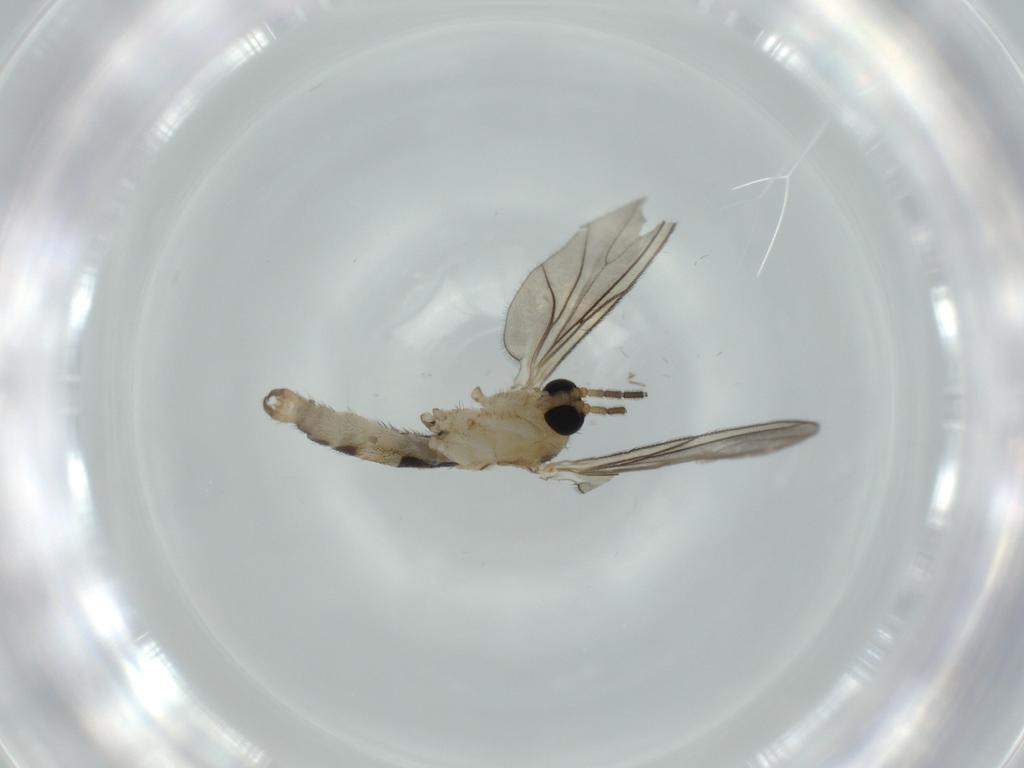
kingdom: Animalia
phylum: Arthropoda
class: Insecta
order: Diptera
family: Sciaridae
